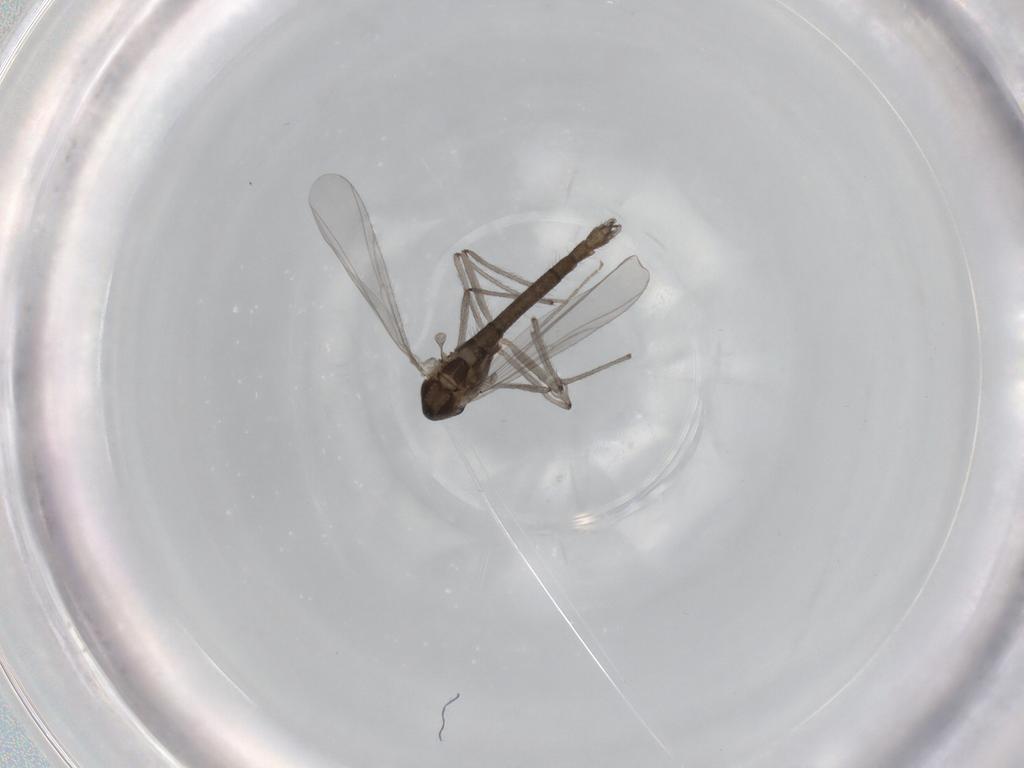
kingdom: Animalia
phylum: Arthropoda
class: Insecta
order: Diptera
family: Chironomidae
